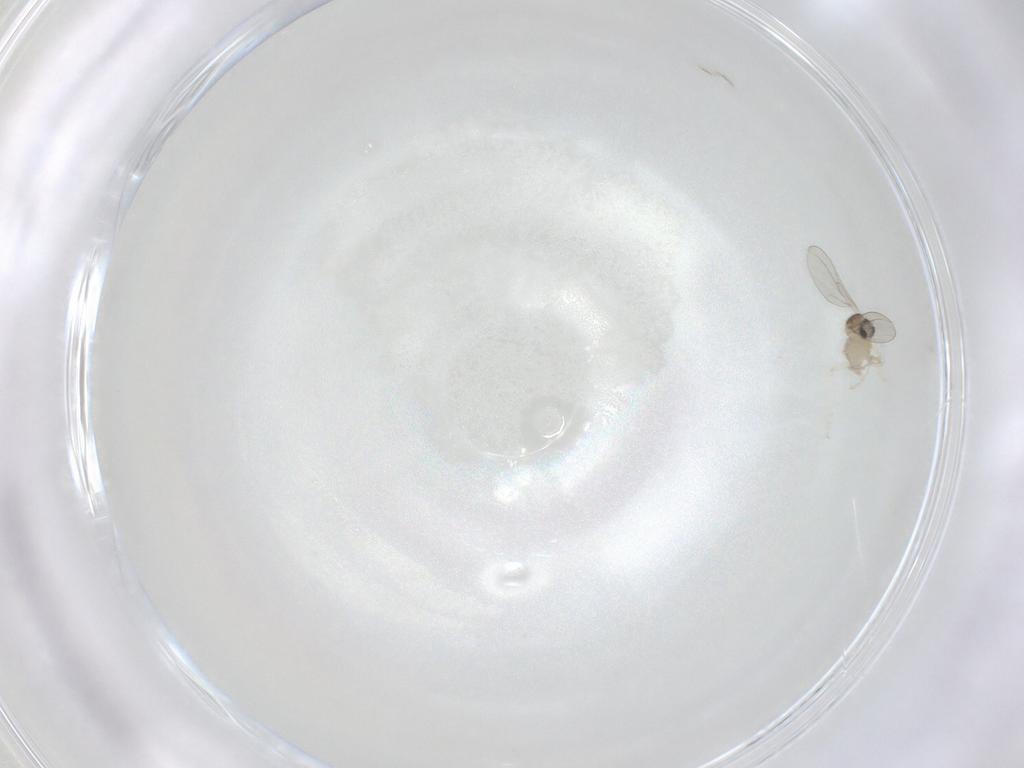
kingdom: Animalia
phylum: Arthropoda
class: Insecta
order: Diptera
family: Cecidomyiidae
